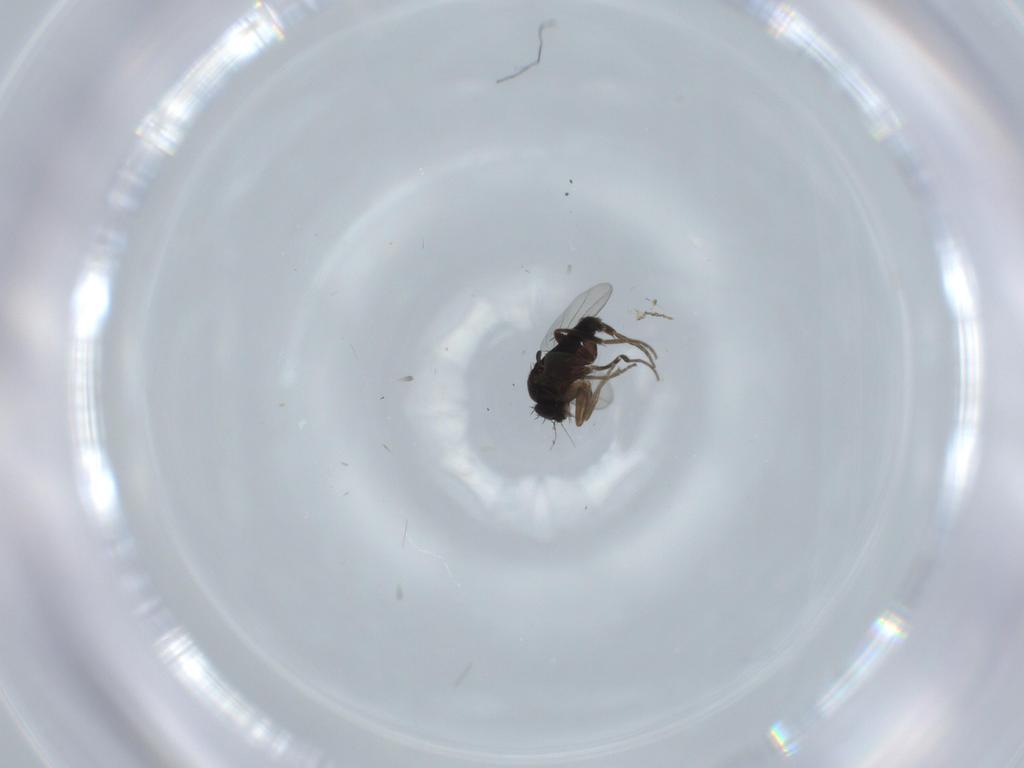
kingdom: Animalia
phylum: Arthropoda
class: Insecta
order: Diptera
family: Phoridae
